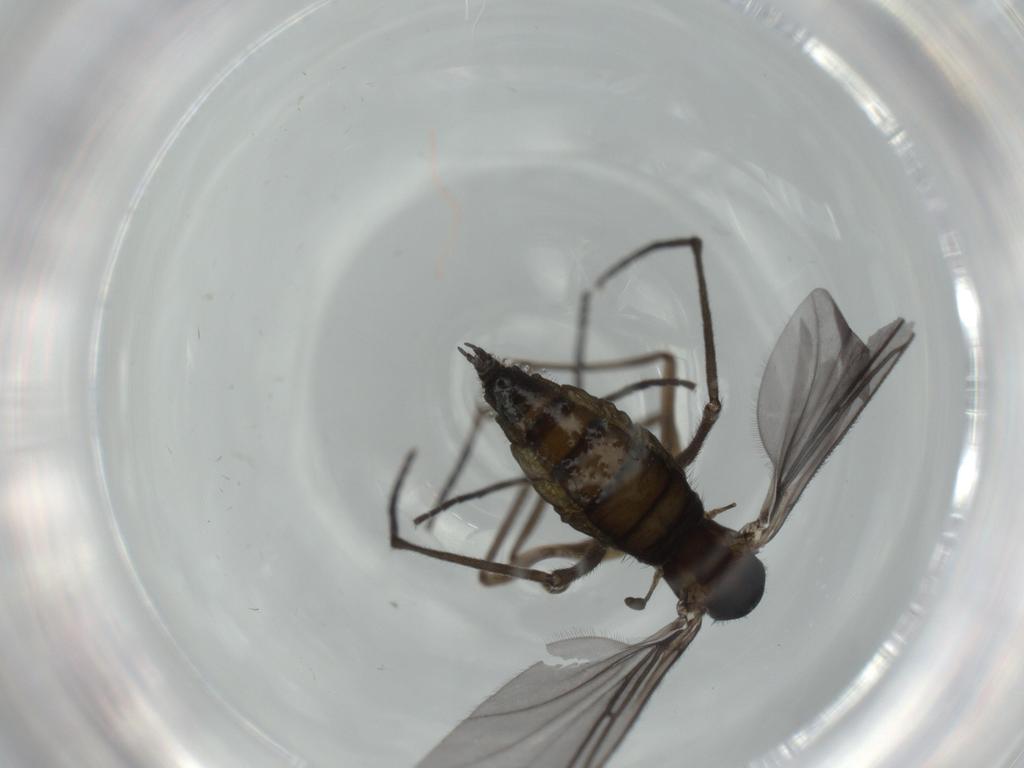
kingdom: Animalia
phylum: Arthropoda
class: Insecta
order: Diptera
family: Sciaridae
